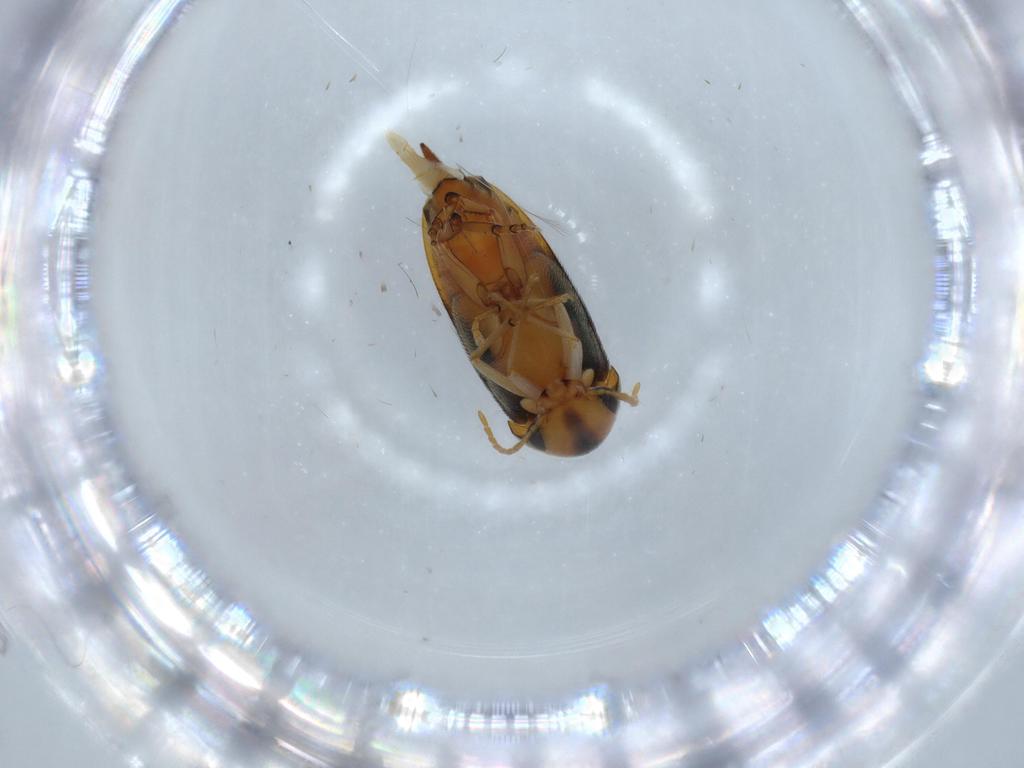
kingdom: Animalia
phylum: Arthropoda
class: Insecta
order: Coleoptera
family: Mordellidae
